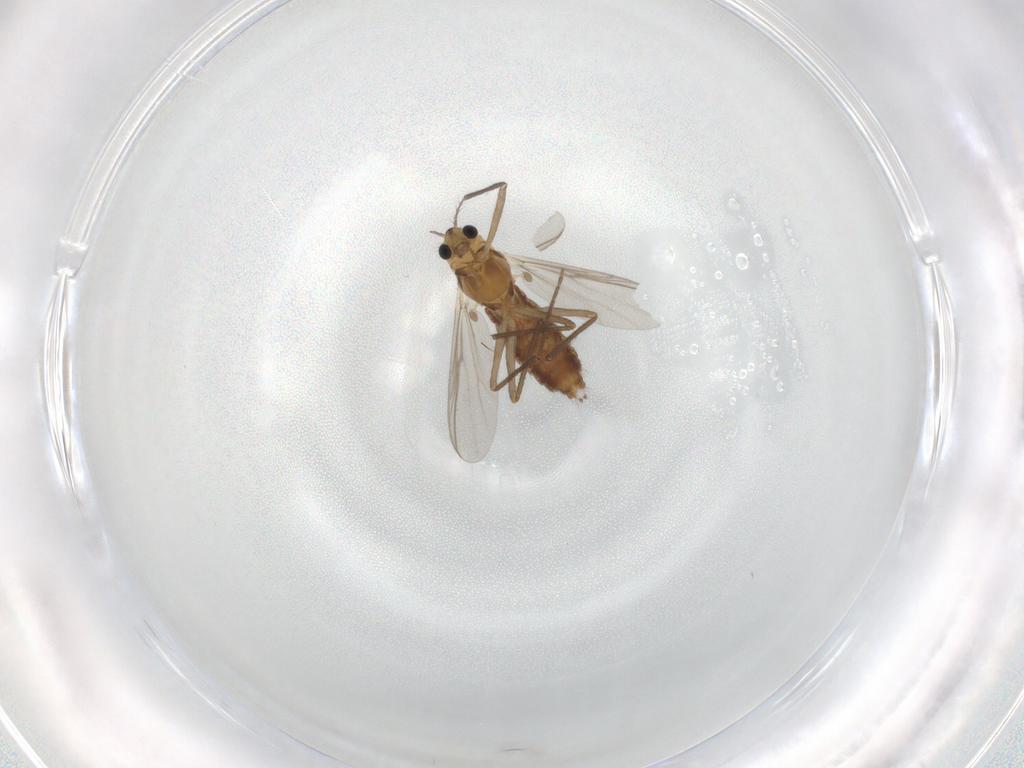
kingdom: Animalia
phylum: Arthropoda
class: Insecta
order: Diptera
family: Chironomidae
